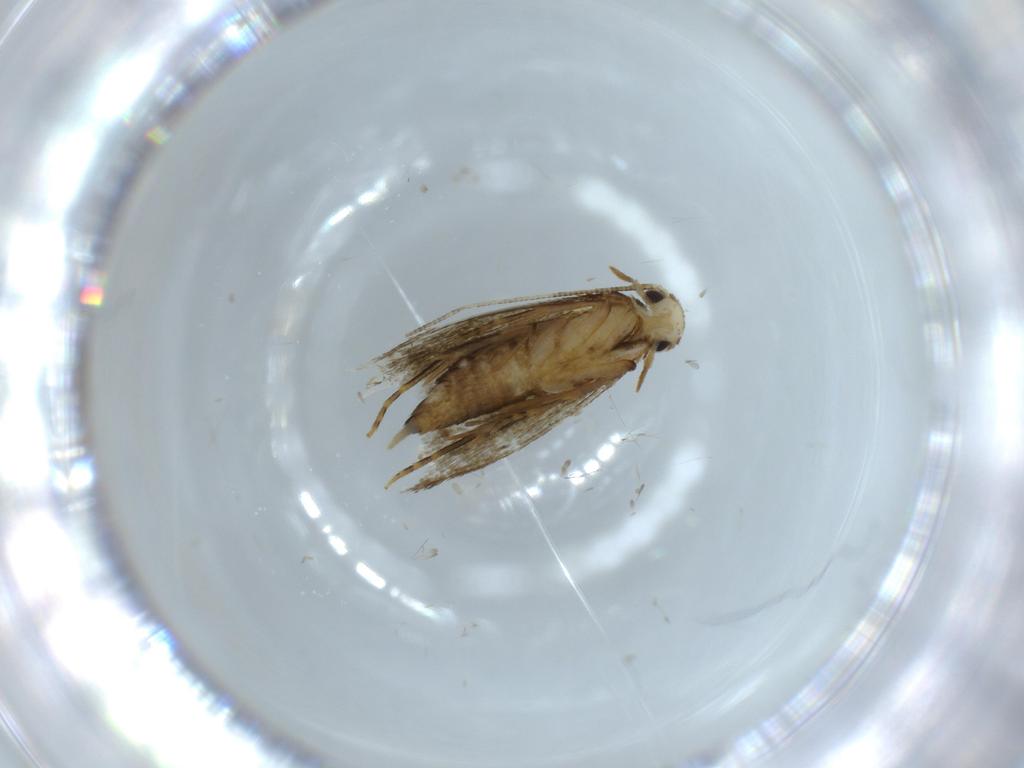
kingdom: Animalia
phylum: Arthropoda
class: Insecta
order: Lepidoptera
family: Tineidae
